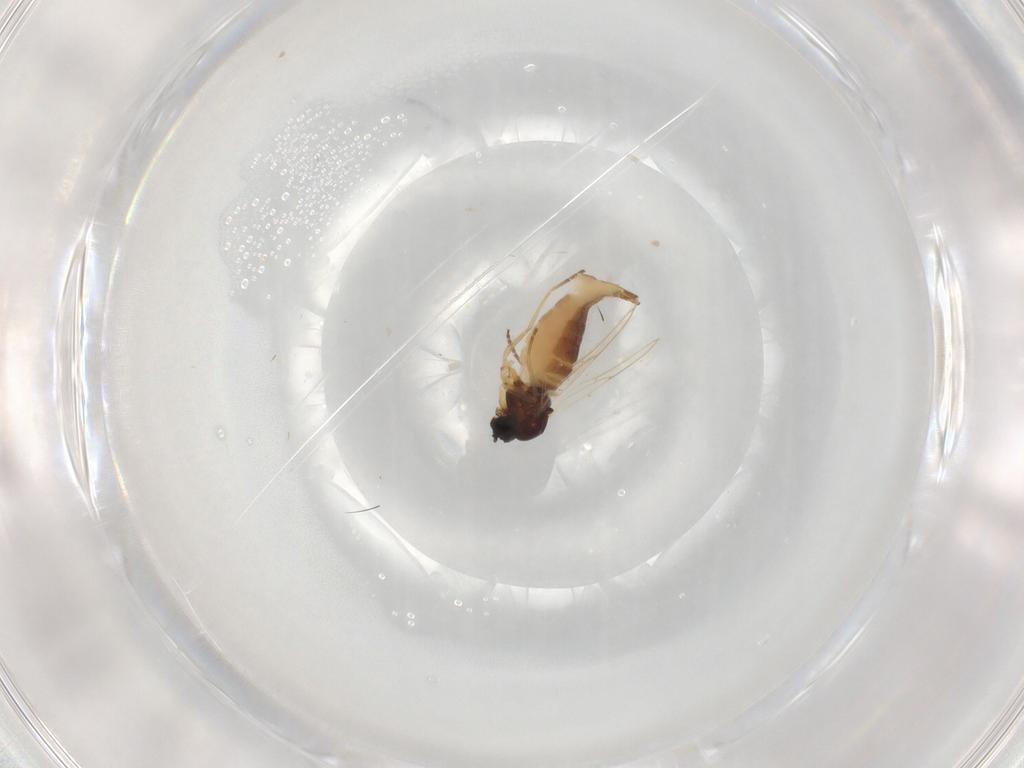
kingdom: Animalia
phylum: Arthropoda
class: Insecta
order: Diptera
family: Sciaridae
